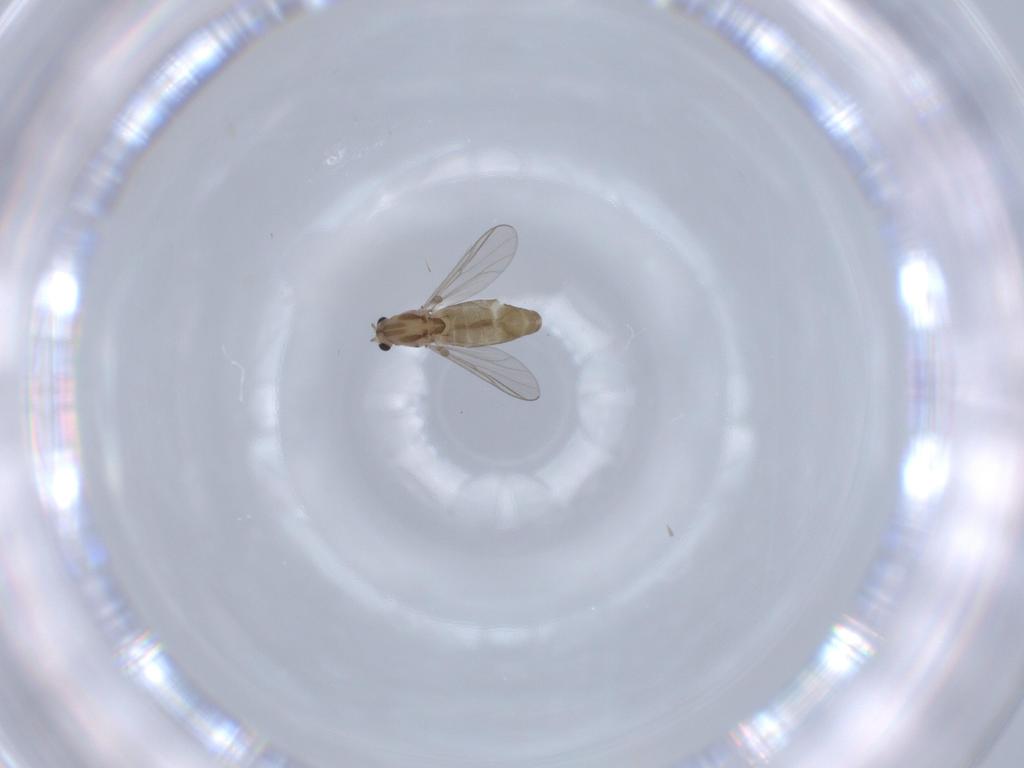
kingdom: Animalia
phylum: Arthropoda
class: Insecta
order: Diptera
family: Chironomidae
